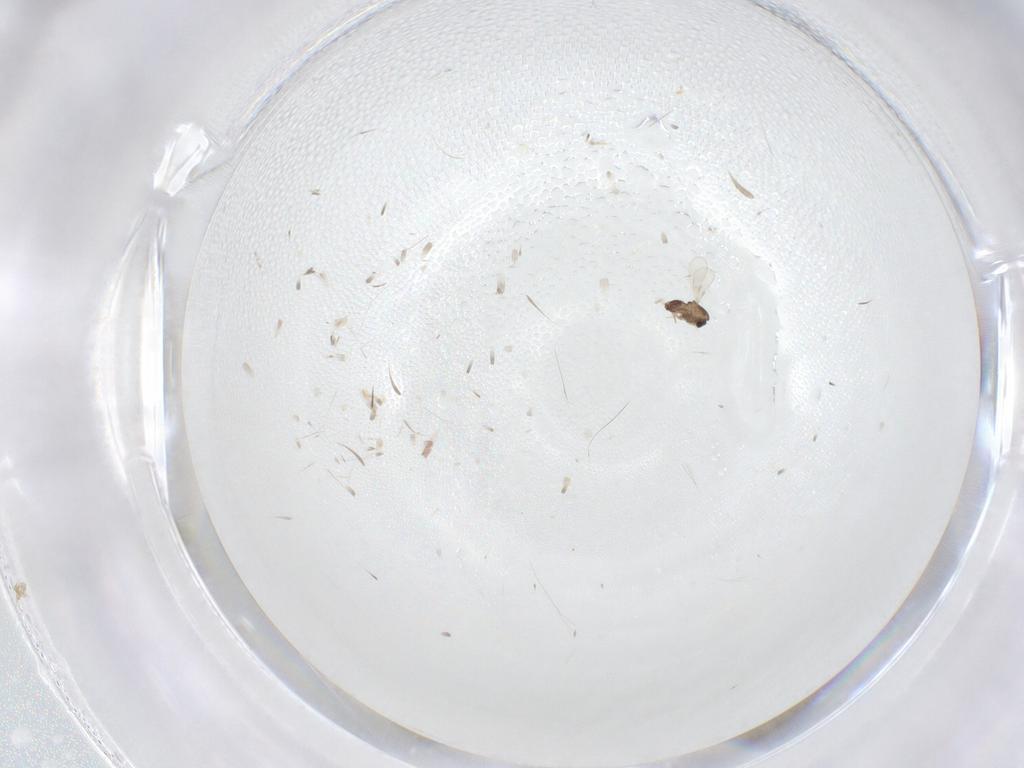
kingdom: Animalia
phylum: Arthropoda
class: Insecta
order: Diptera
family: Chironomidae
